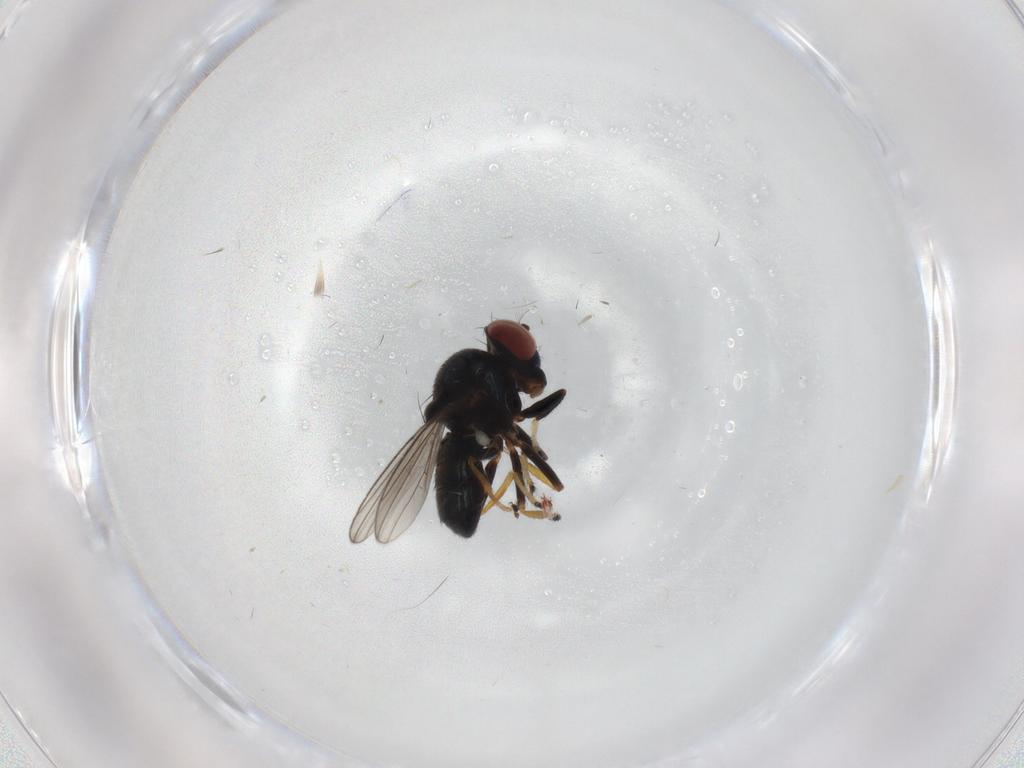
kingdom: Animalia
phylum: Arthropoda
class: Insecta
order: Diptera
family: Ephydridae
